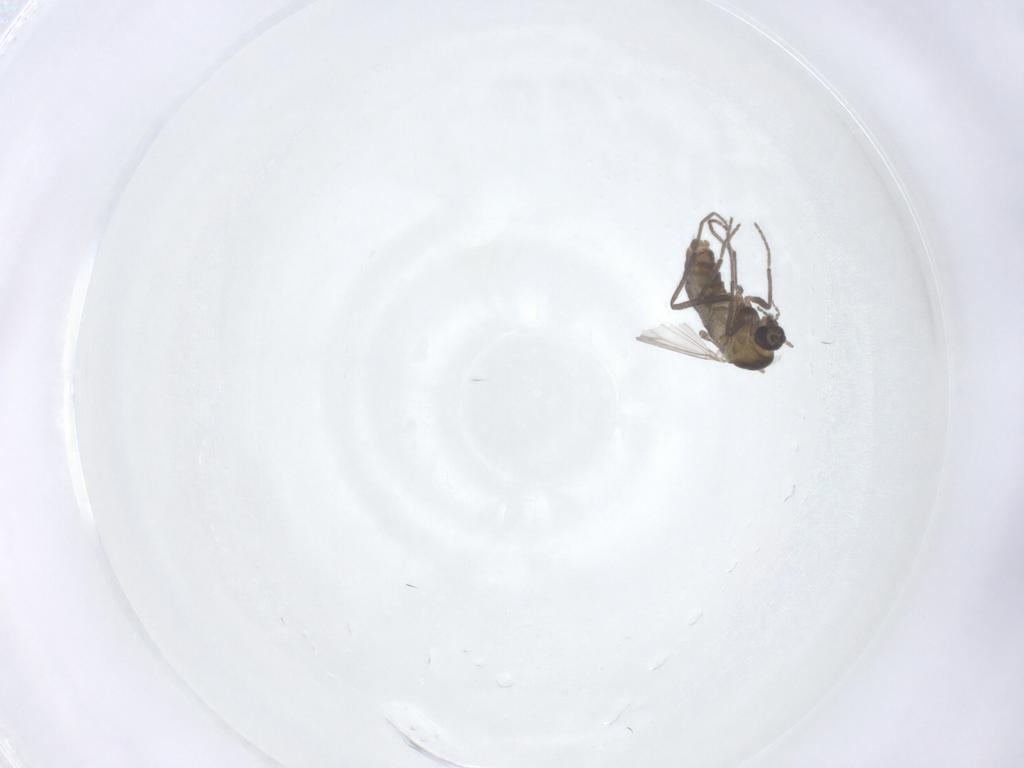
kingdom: Animalia
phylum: Arthropoda
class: Insecta
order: Diptera
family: Chironomidae
